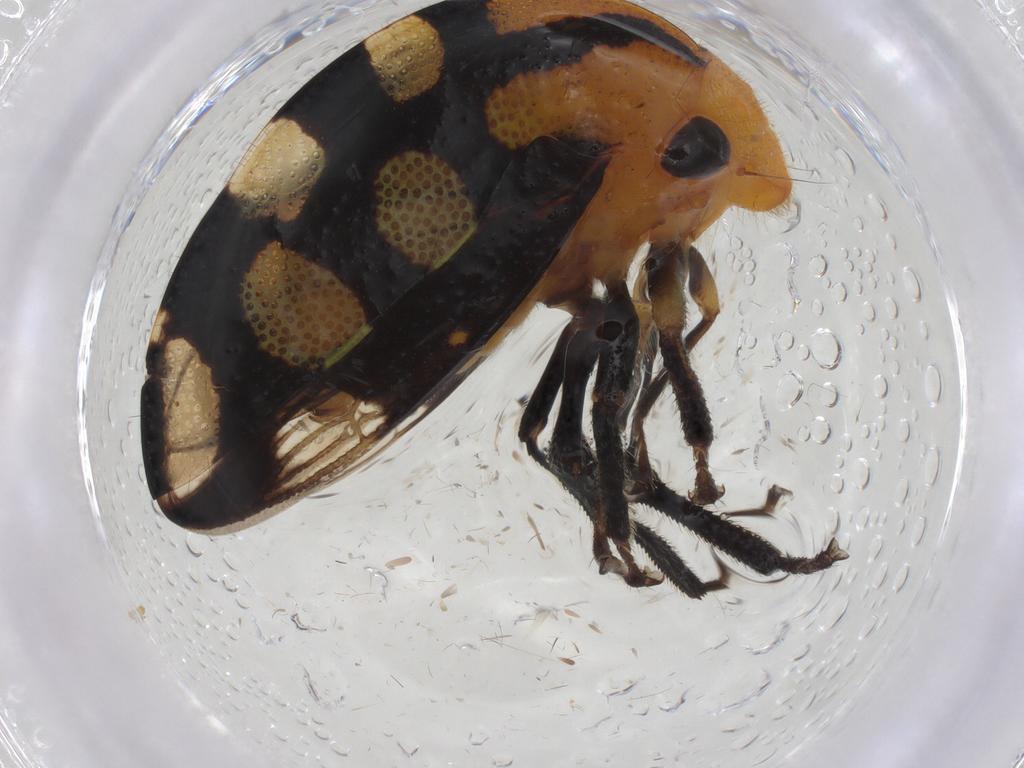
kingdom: Animalia
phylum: Arthropoda
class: Insecta
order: Hemiptera
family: Membracidae
